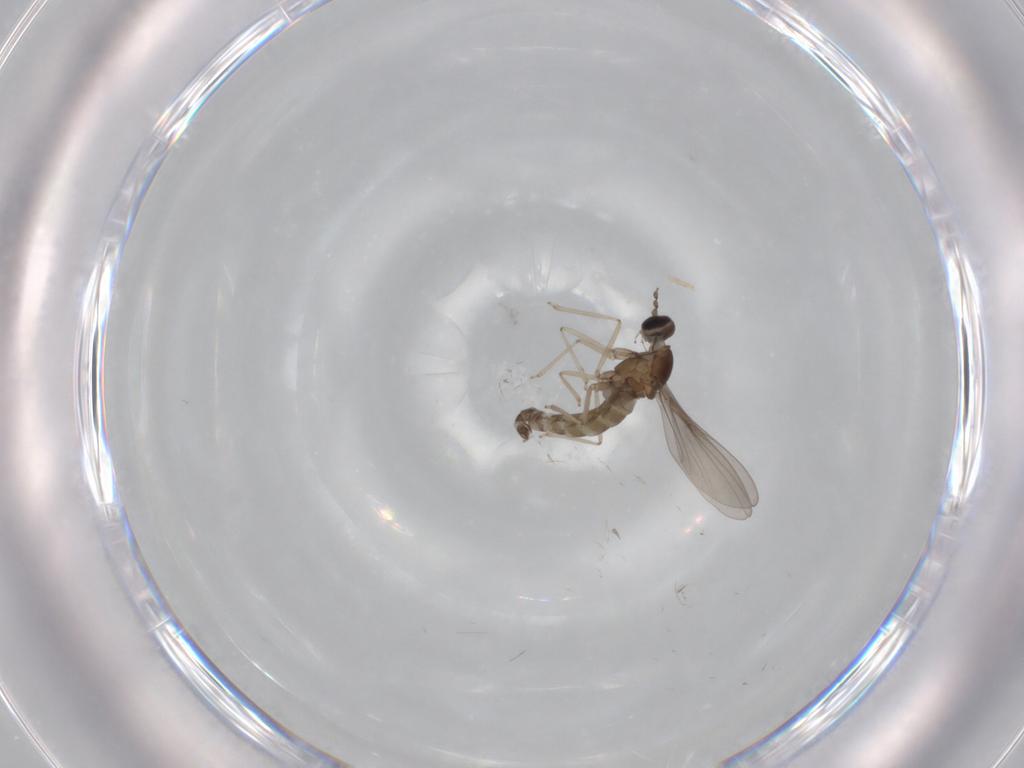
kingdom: Animalia
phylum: Arthropoda
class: Insecta
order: Diptera
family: Cecidomyiidae
